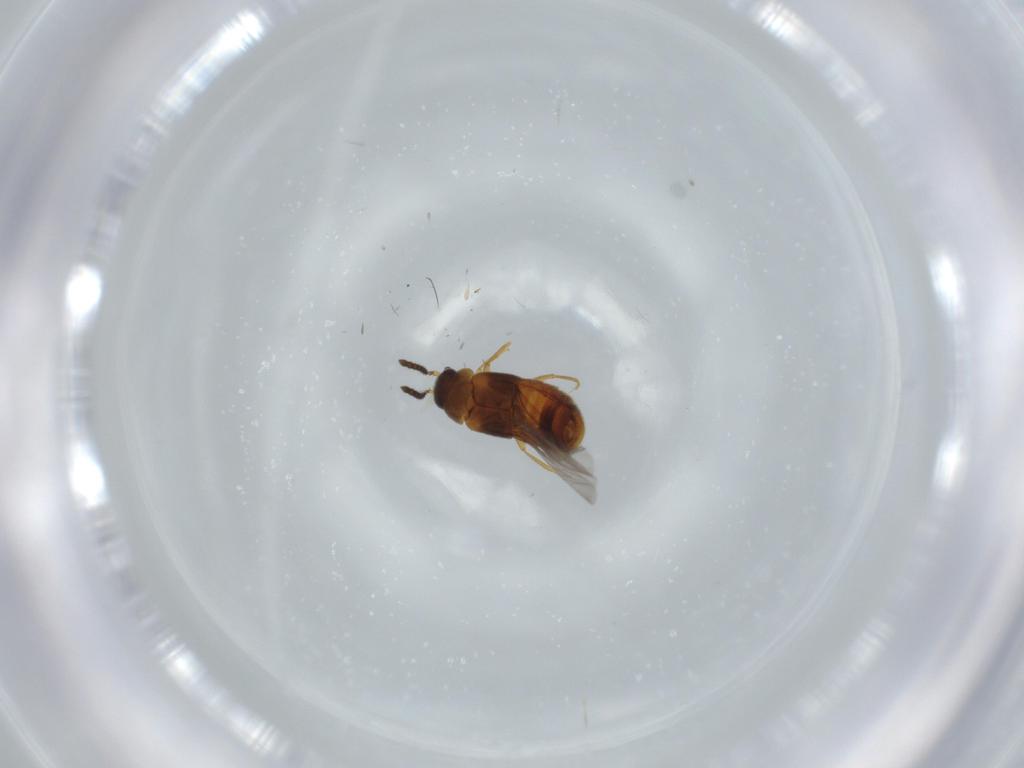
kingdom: Animalia
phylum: Arthropoda
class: Insecta
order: Coleoptera
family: Staphylinidae
